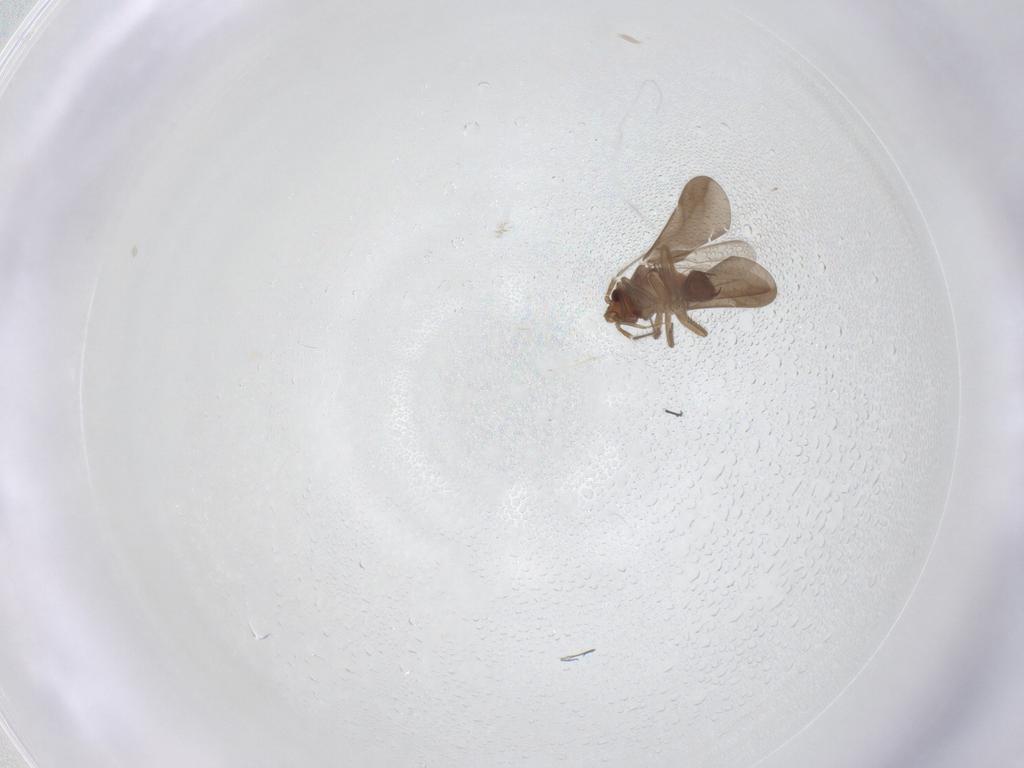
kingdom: Animalia
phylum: Arthropoda
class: Insecta
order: Hemiptera
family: Ceratocombidae
